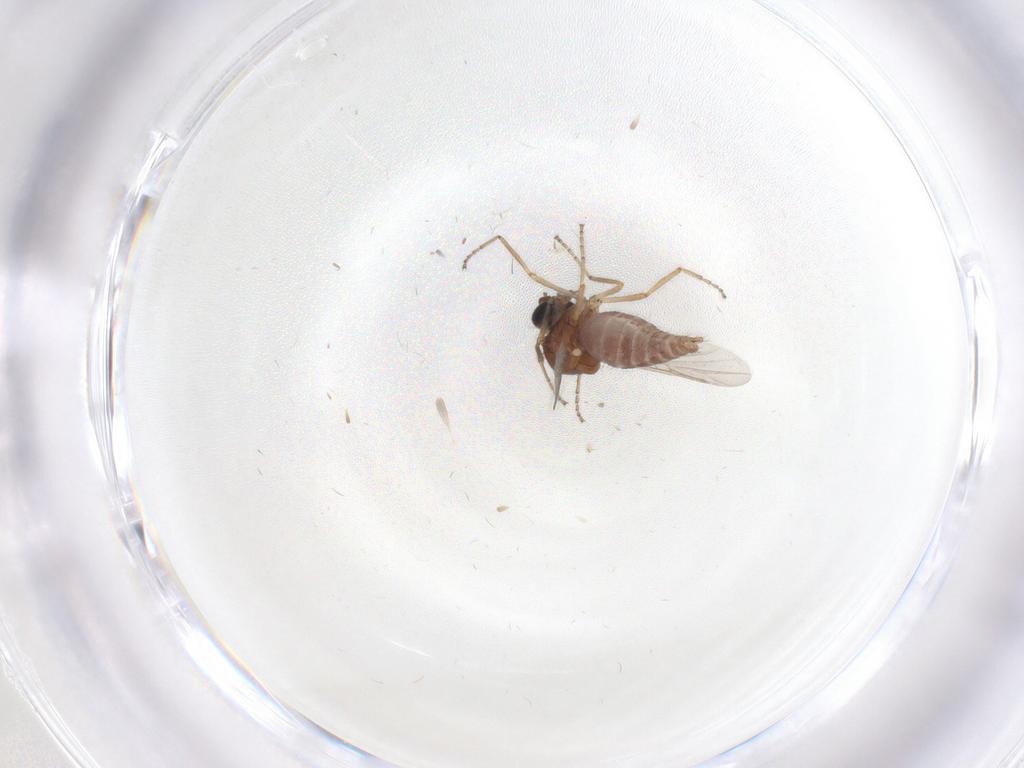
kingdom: Animalia
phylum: Arthropoda
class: Insecta
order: Diptera
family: Ceratopogonidae
